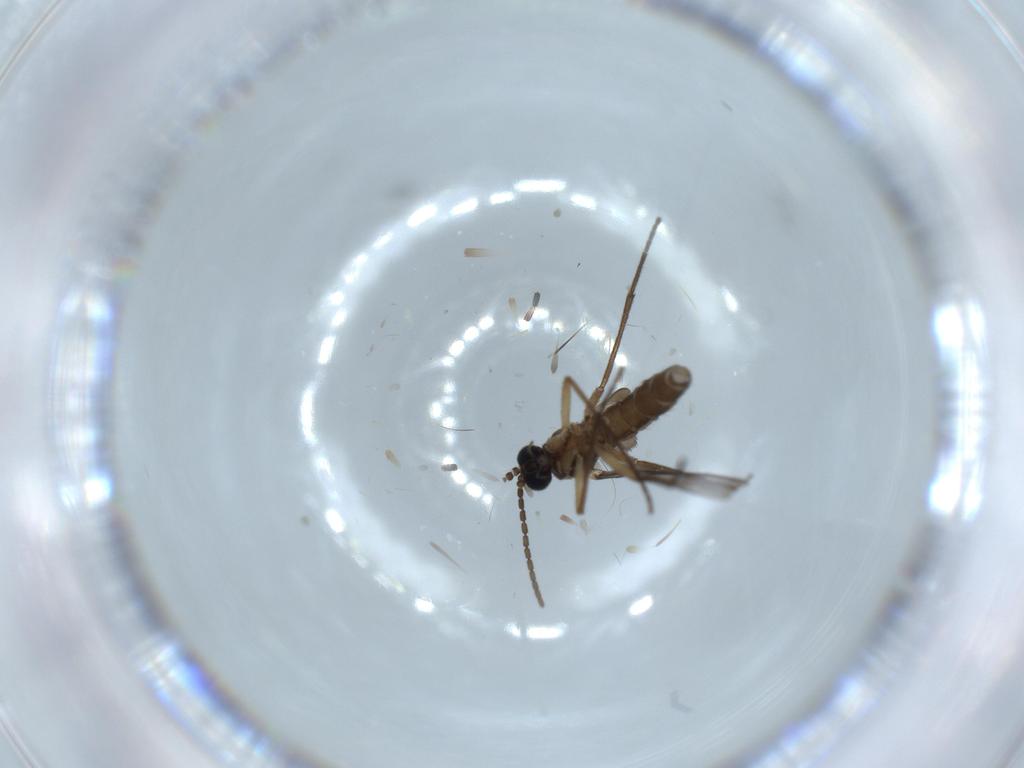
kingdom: Animalia
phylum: Arthropoda
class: Insecta
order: Diptera
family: Sciaridae
